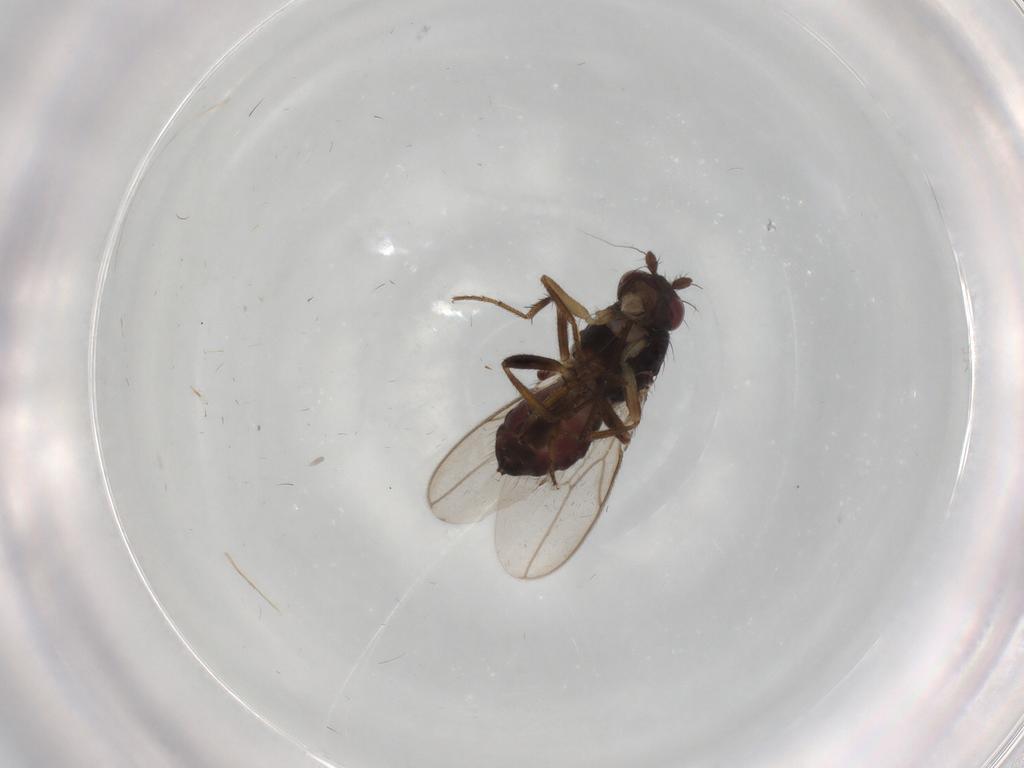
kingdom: Animalia
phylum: Arthropoda
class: Insecta
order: Diptera
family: Sphaeroceridae
